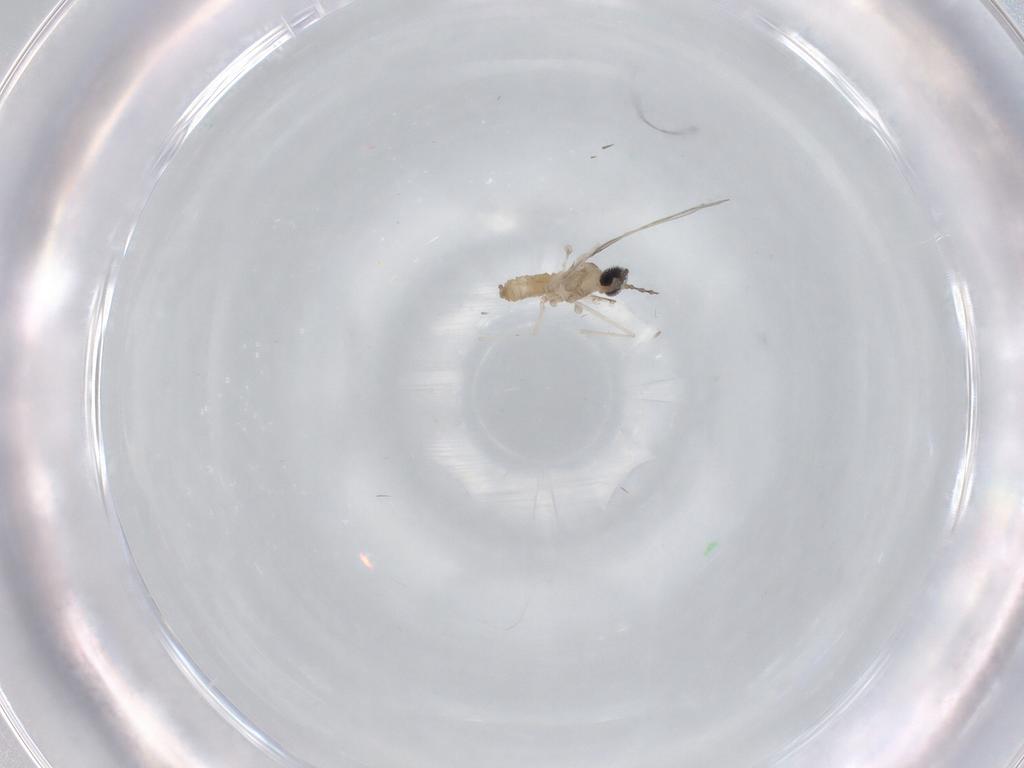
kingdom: Animalia
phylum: Arthropoda
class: Insecta
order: Diptera
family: Cecidomyiidae
